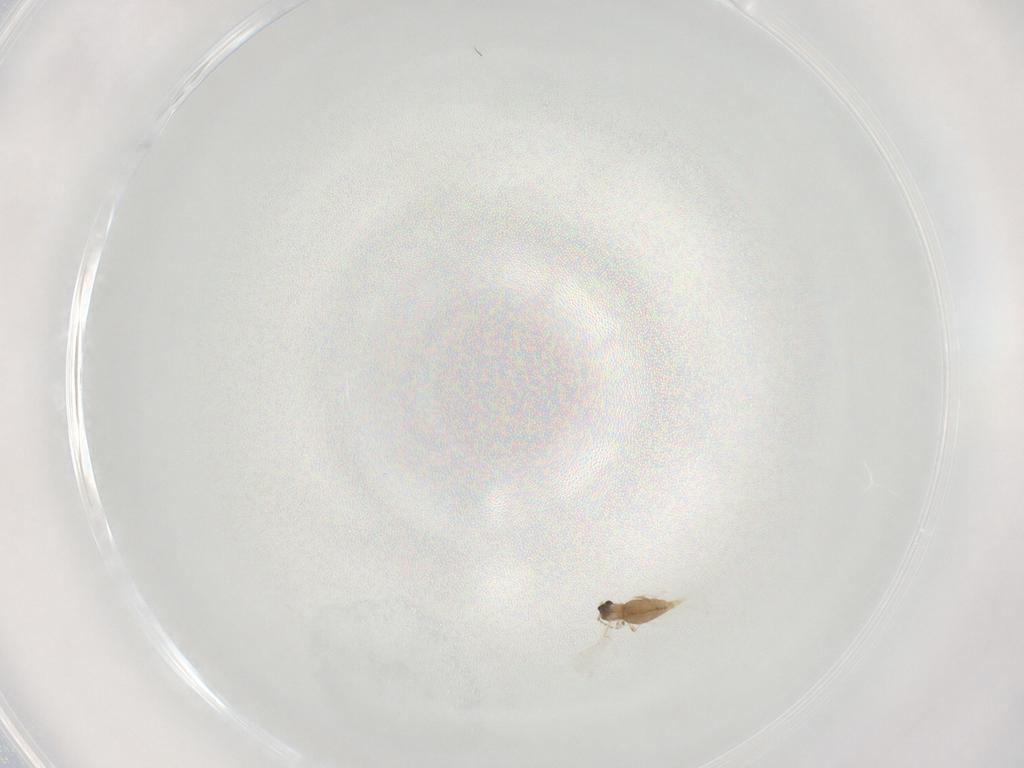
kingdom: Animalia
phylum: Arthropoda
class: Insecta
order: Diptera
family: Cecidomyiidae
